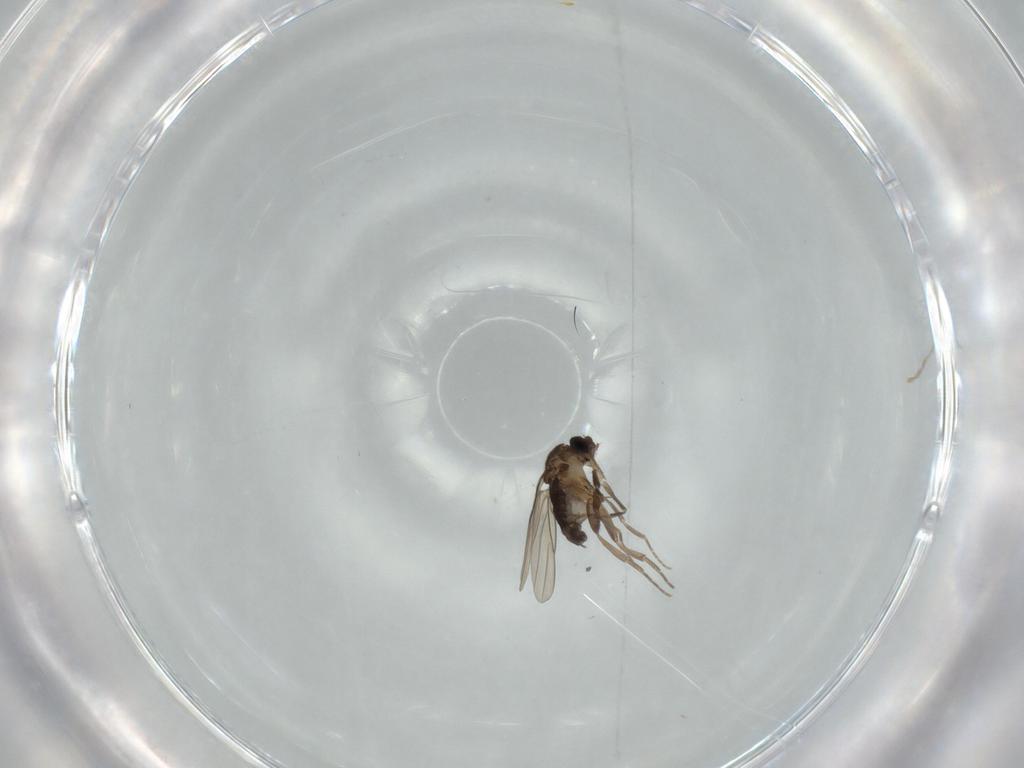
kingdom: Animalia
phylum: Arthropoda
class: Insecta
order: Diptera
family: Phoridae
